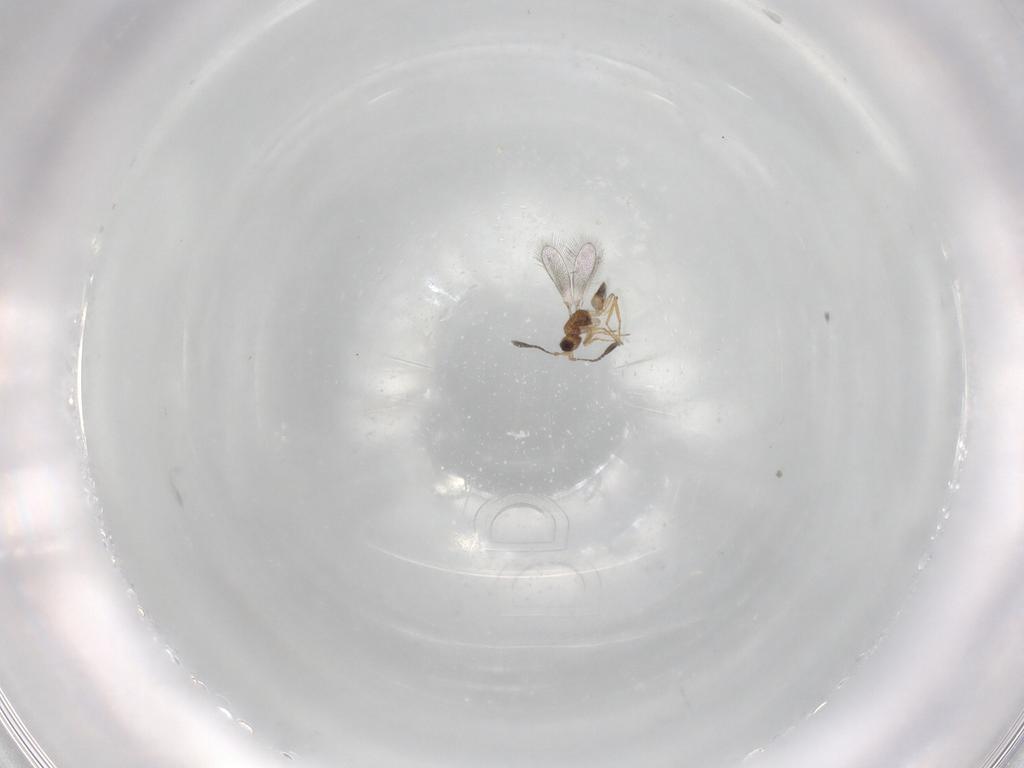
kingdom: Animalia
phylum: Arthropoda
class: Insecta
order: Hymenoptera
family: Mymaridae
